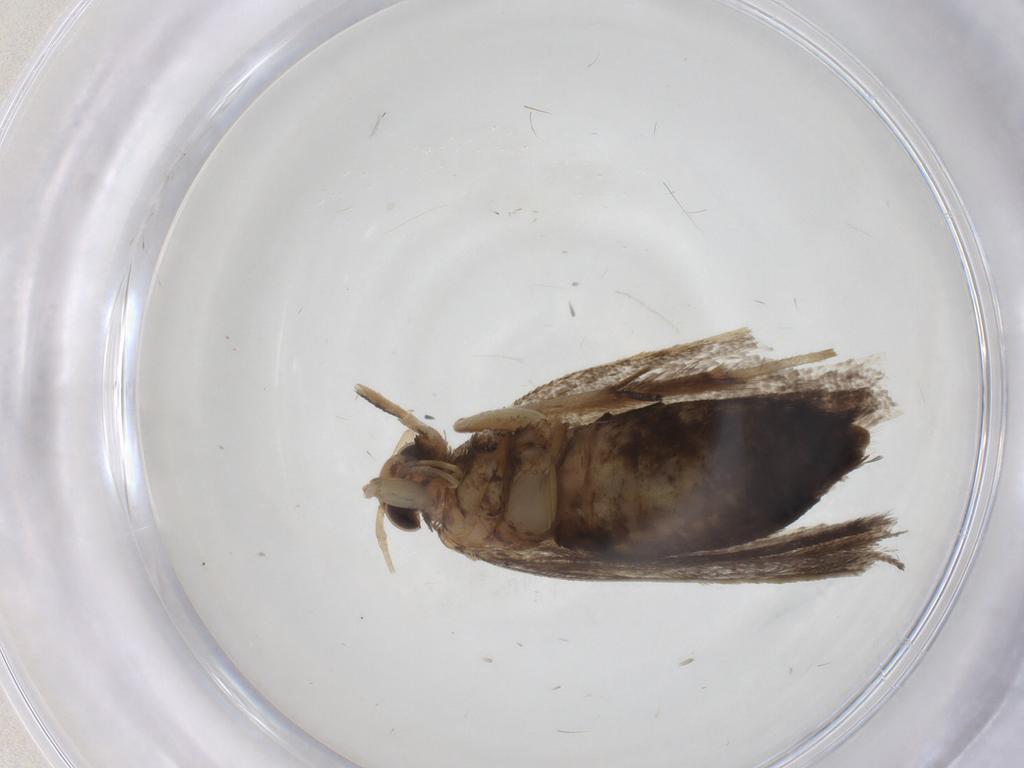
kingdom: Animalia
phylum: Arthropoda
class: Insecta
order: Lepidoptera
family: Lecithoceridae
